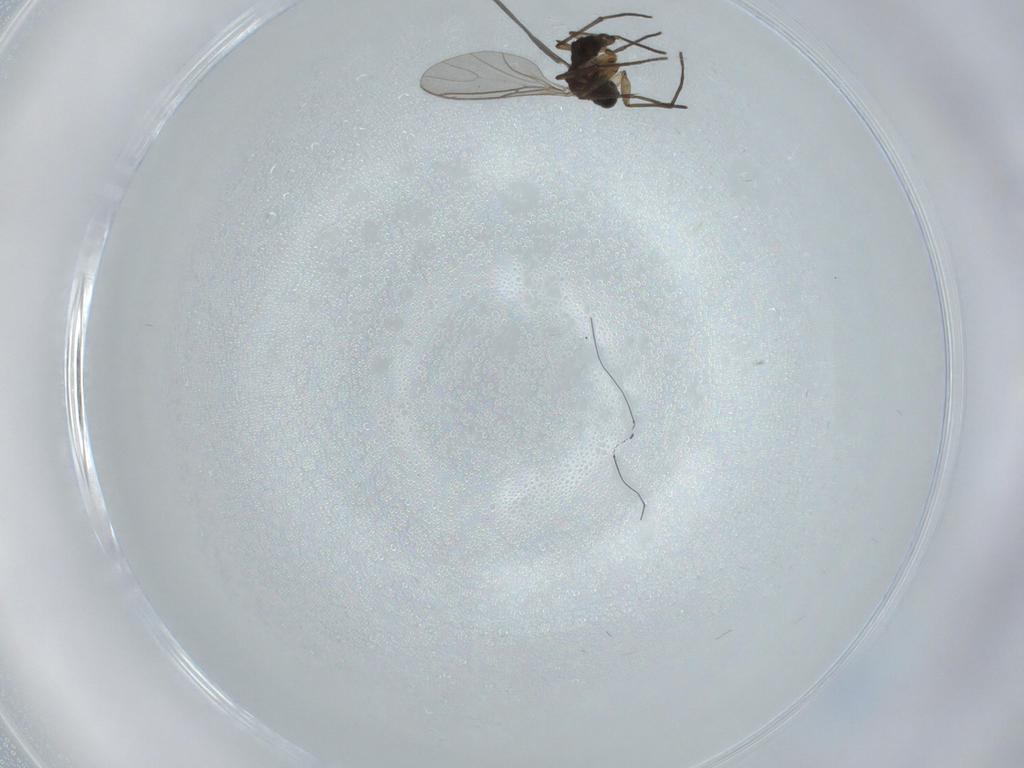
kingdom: Animalia
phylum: Arthropoda
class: Insecta
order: Diptera
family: Sciaridae
